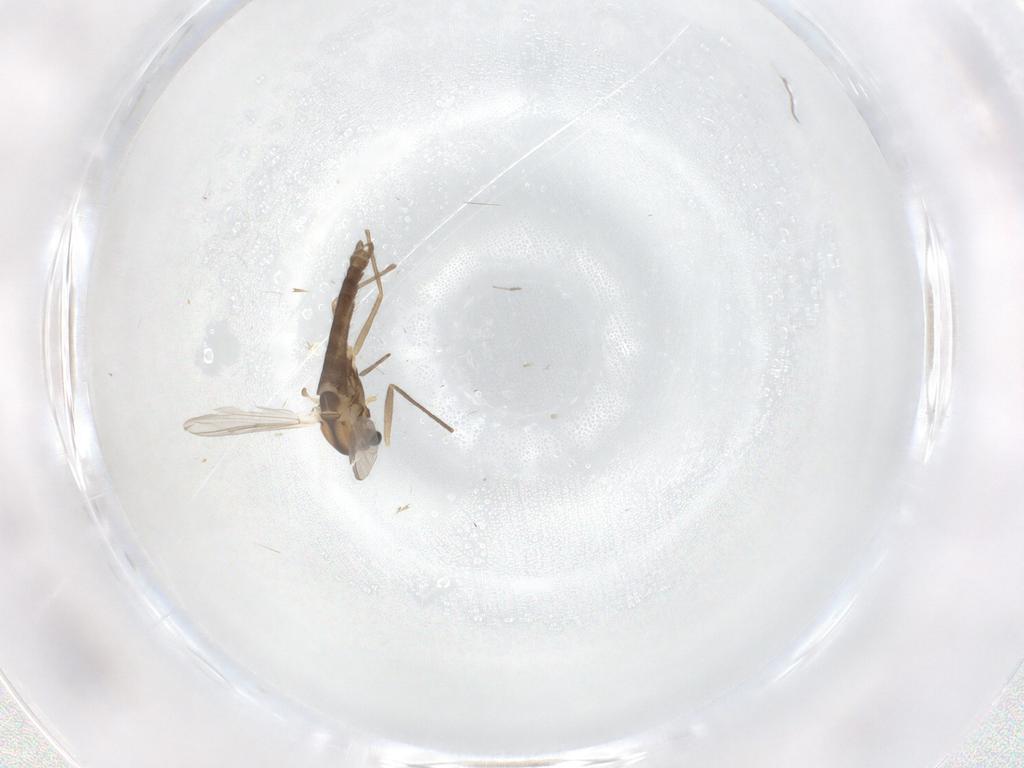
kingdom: Animalia
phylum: Arthropoda
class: Insecta
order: Diptera
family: Chironomidae
